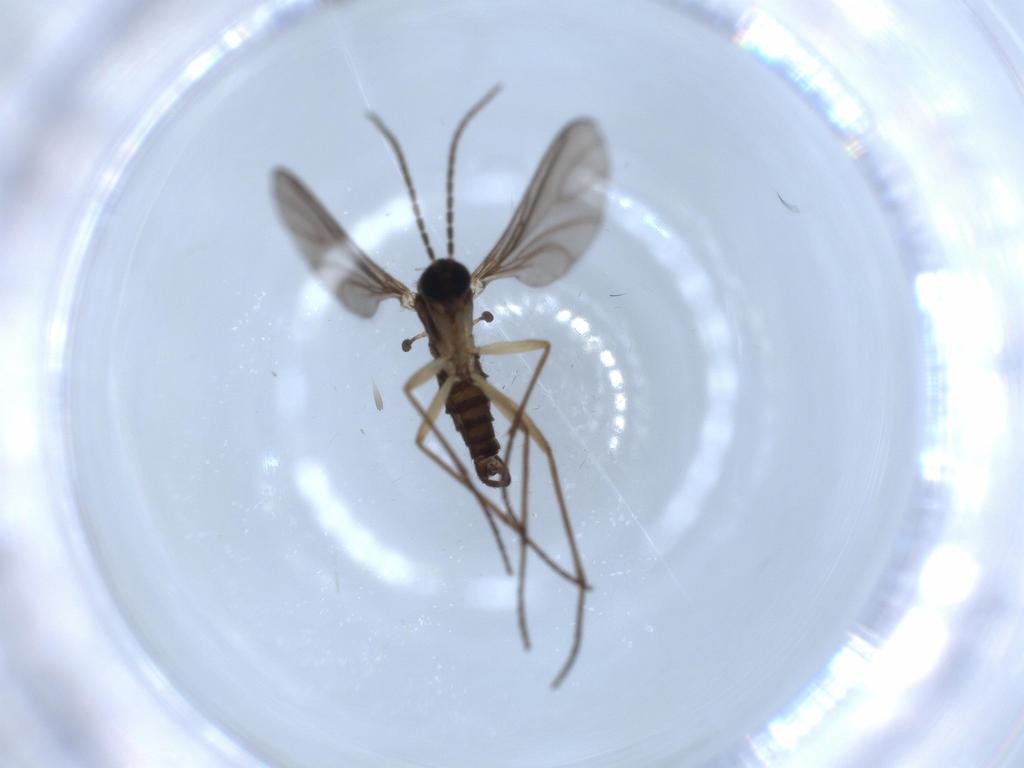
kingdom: Animalia
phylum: Arthropoda
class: Insecta
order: Diptera
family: Sciaridae
